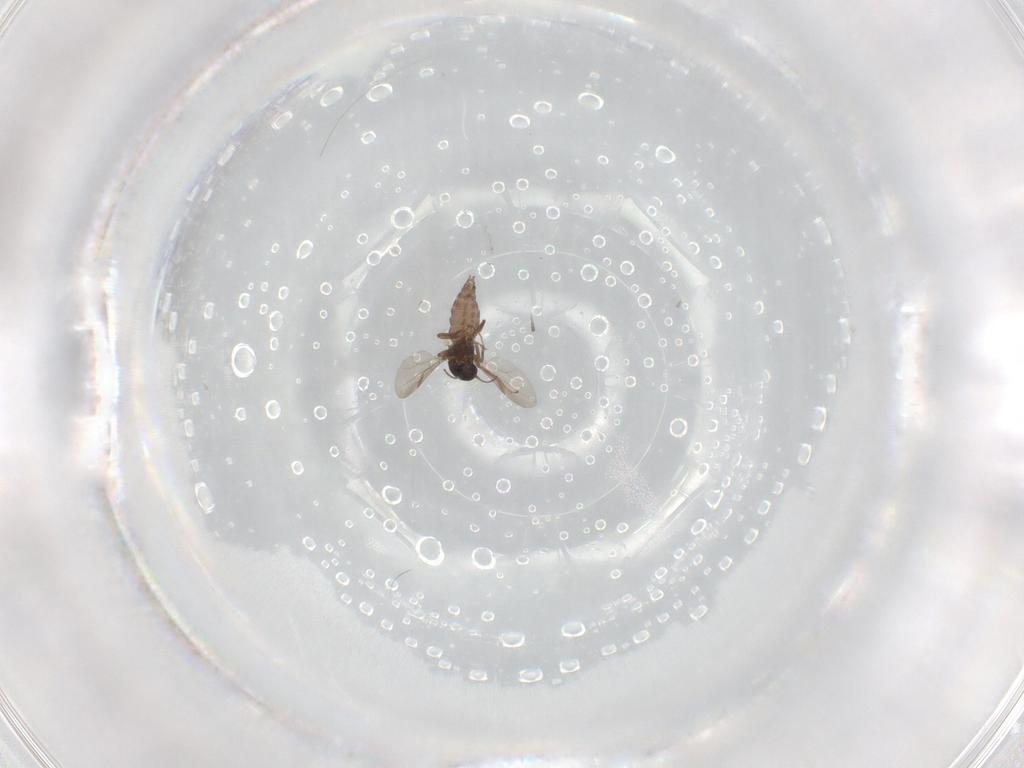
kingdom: Animalia
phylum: Arthropoda
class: Insecta
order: Diptera
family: Ceratopogonidae
